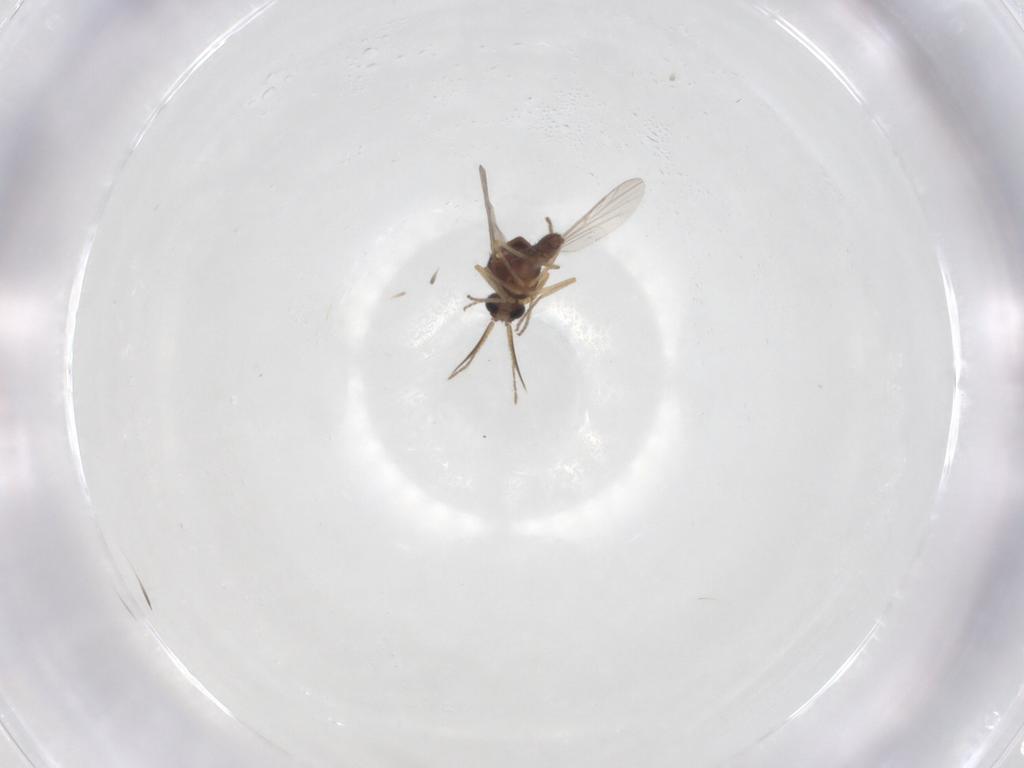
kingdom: Animalia
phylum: Arthropoda
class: Insecta
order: Diptera
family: Ceratopogonidae
